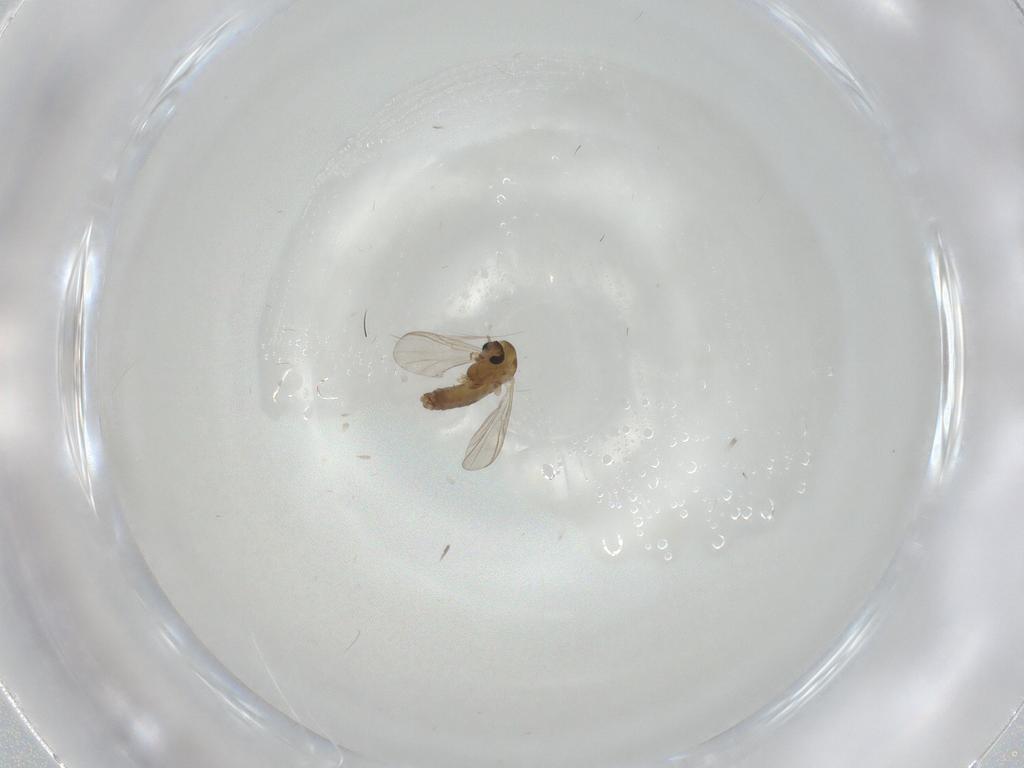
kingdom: Animalia
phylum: Arthropoda
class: Insecta
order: Diptera
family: Chironomidae
